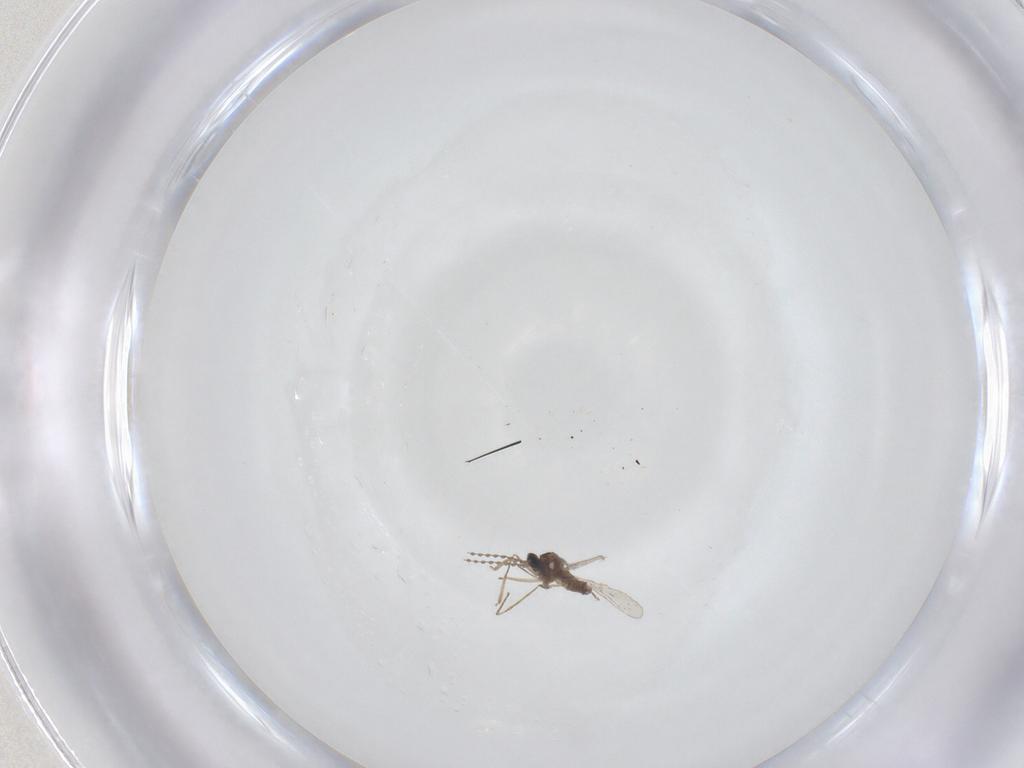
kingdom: Animalia
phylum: Arthropoda
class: Insecta
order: Diptera
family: Cecidomyiidae
